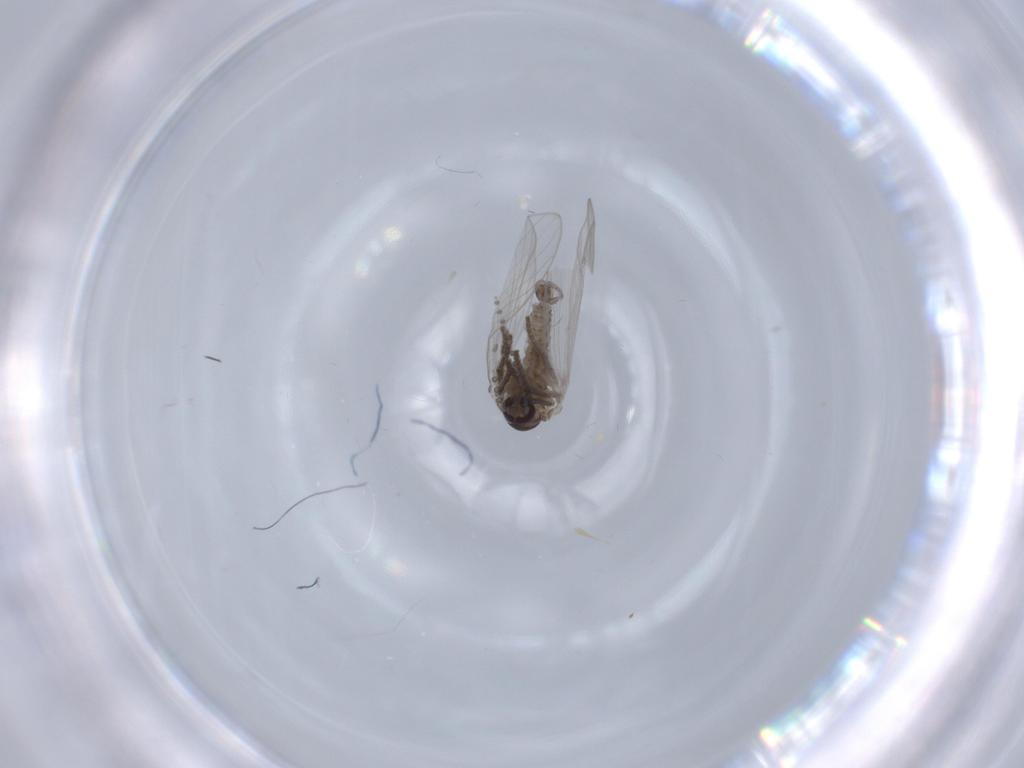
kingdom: Animalia
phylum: Arthropoda
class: Insecta
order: Diptera
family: Psychodidae
